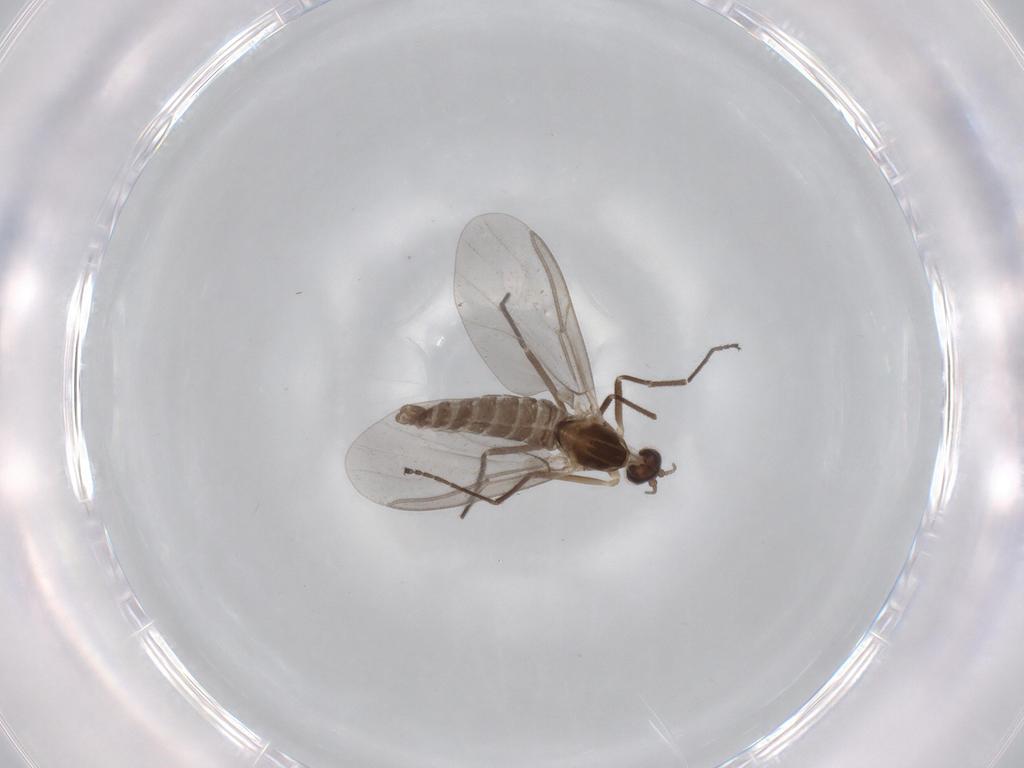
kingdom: Animalia
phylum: Arthropoda
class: Insecta
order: Diptera
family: Cecidomyiidae
